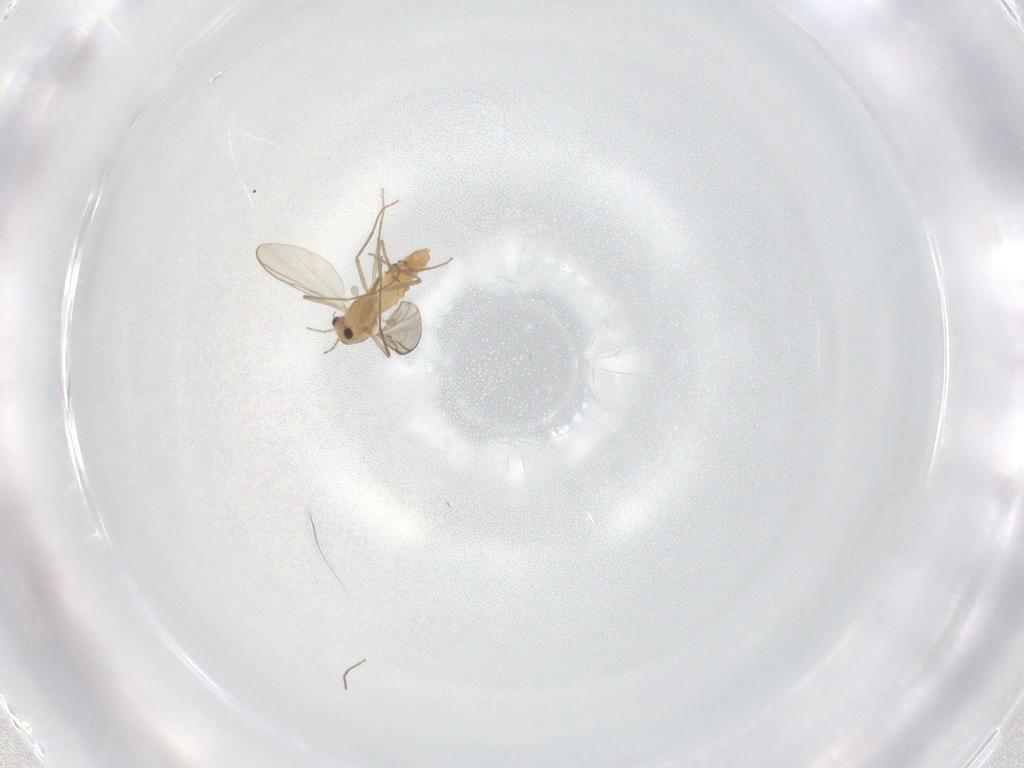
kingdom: Animalia
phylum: Arthropoda
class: Insecta
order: Diptera
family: Chironomidae
